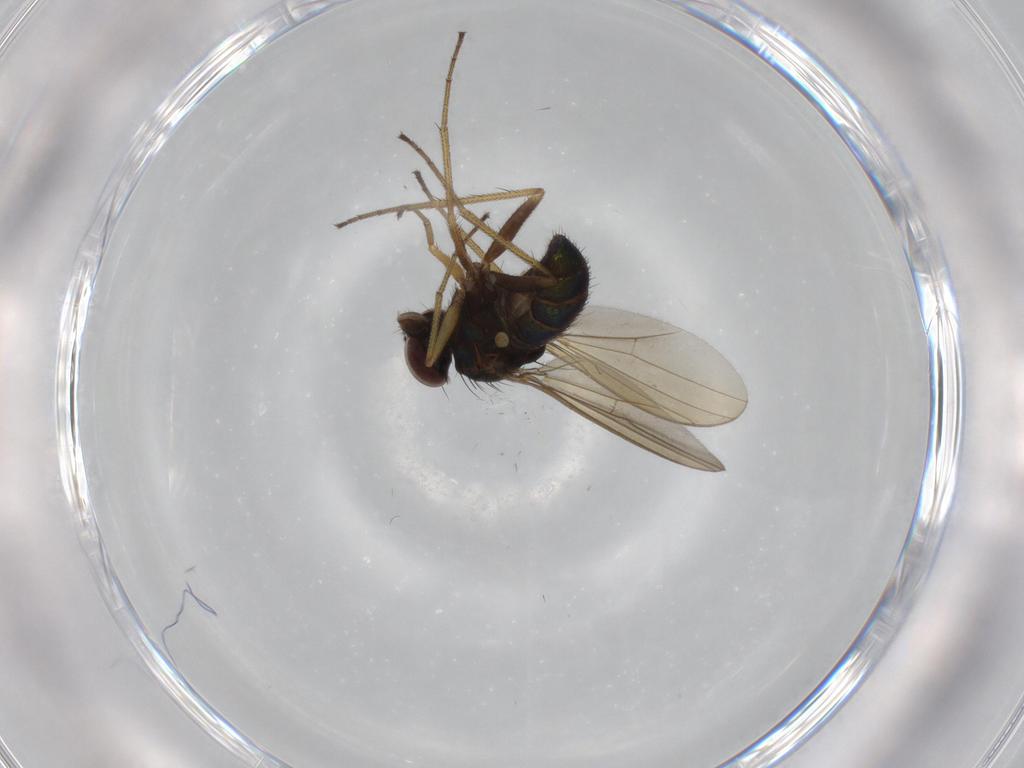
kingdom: Animalia
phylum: Arthropoda
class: Insecta
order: Diptera
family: Dolichopodidae
